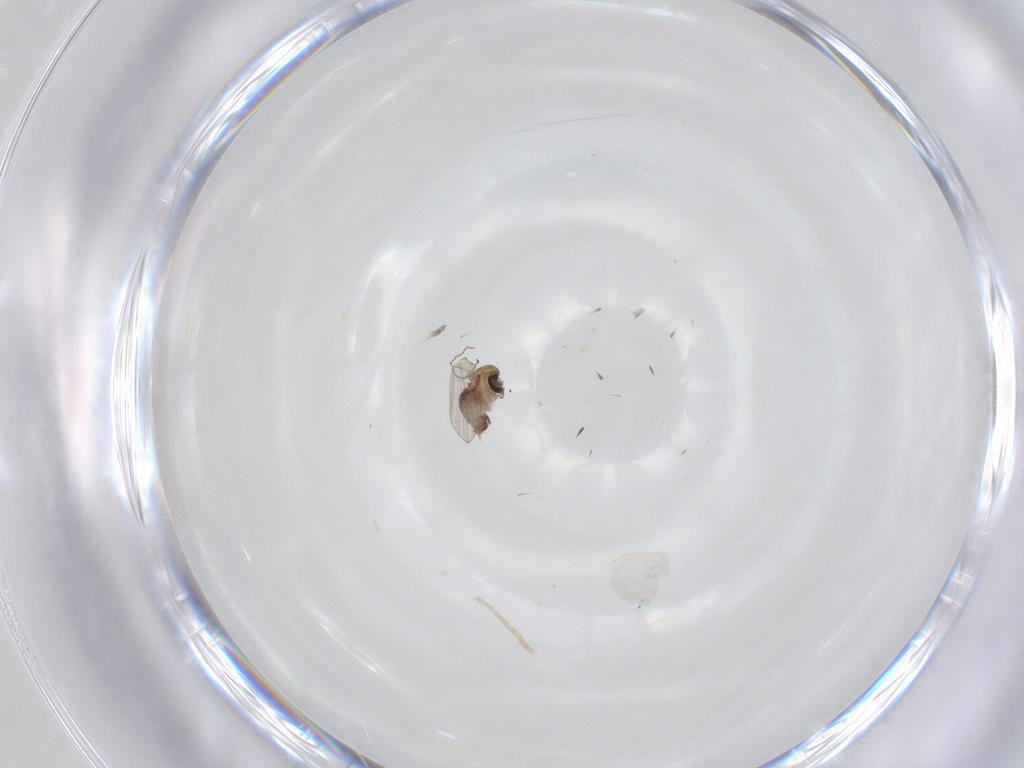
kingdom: Animalia
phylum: Arthropoda
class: Insecta
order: Diptera
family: Psychodidae
